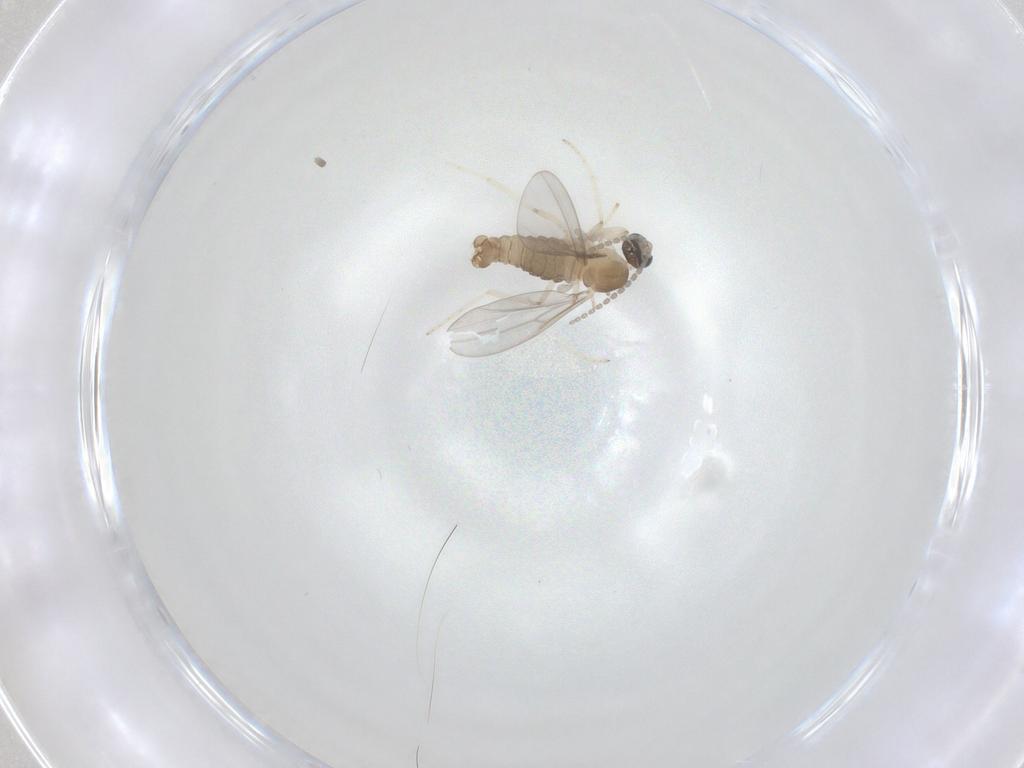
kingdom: Animalia
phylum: Arthropoda
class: Insecta
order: Diptera
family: Cecidomyiidae
